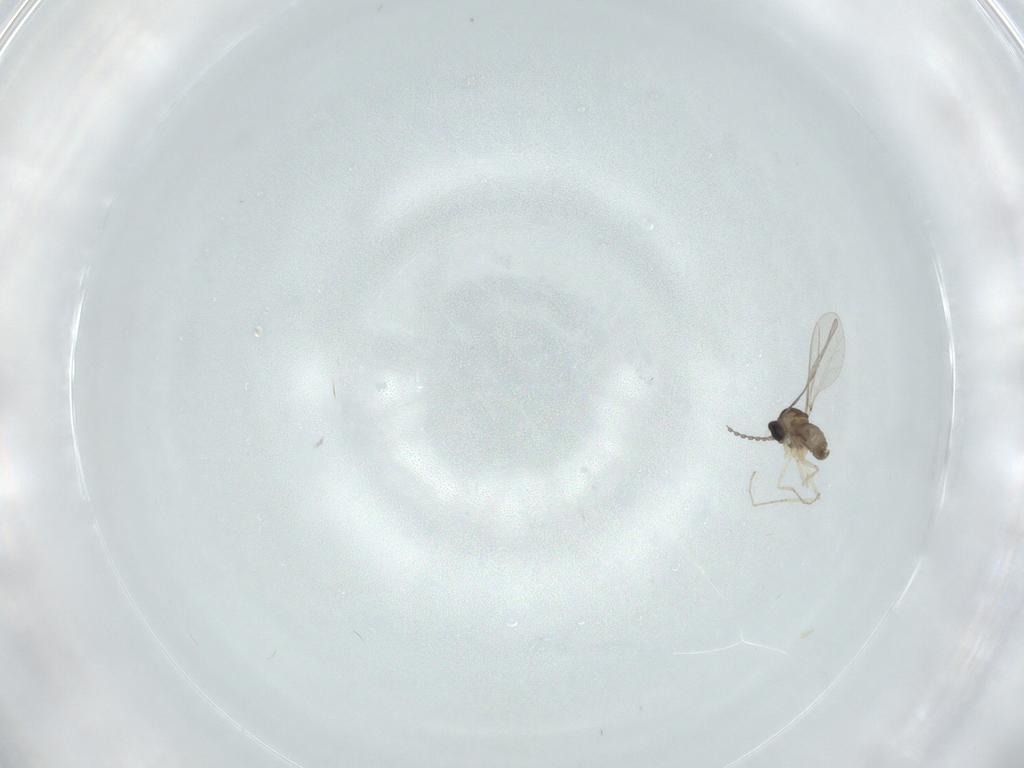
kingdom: Animalia
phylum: Arthropoda
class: Insecta
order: Diptera
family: Cecidomyiidae
